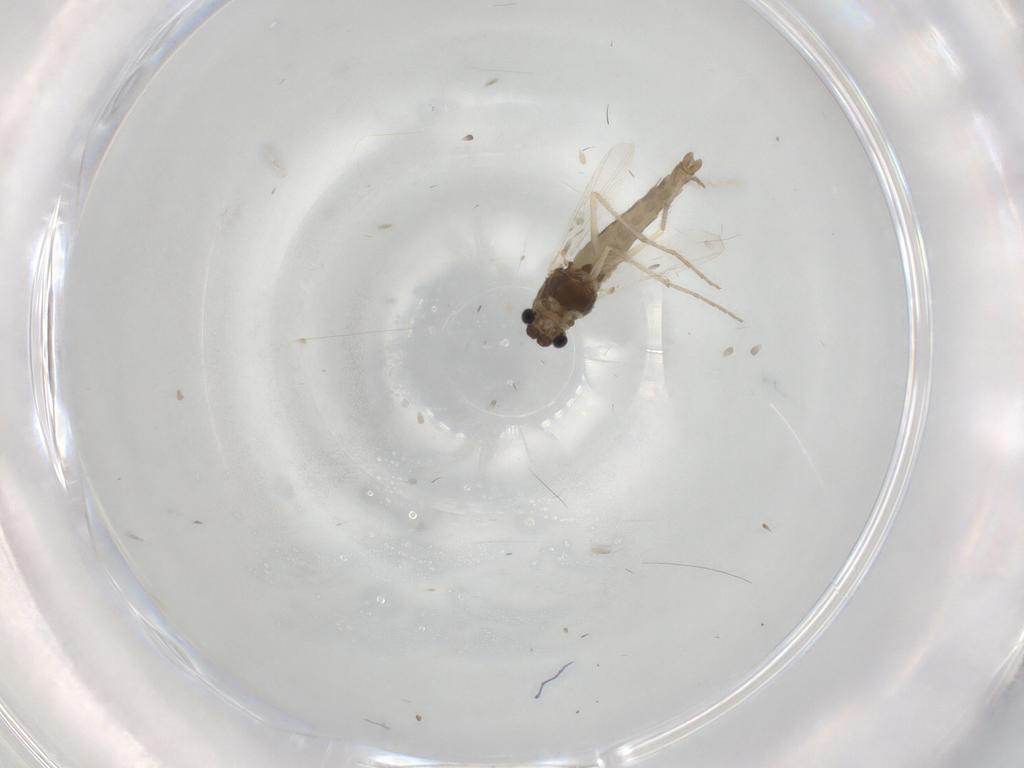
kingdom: Animalia
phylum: Arthropoda
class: Insecta
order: Diptera
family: Chironomidae
